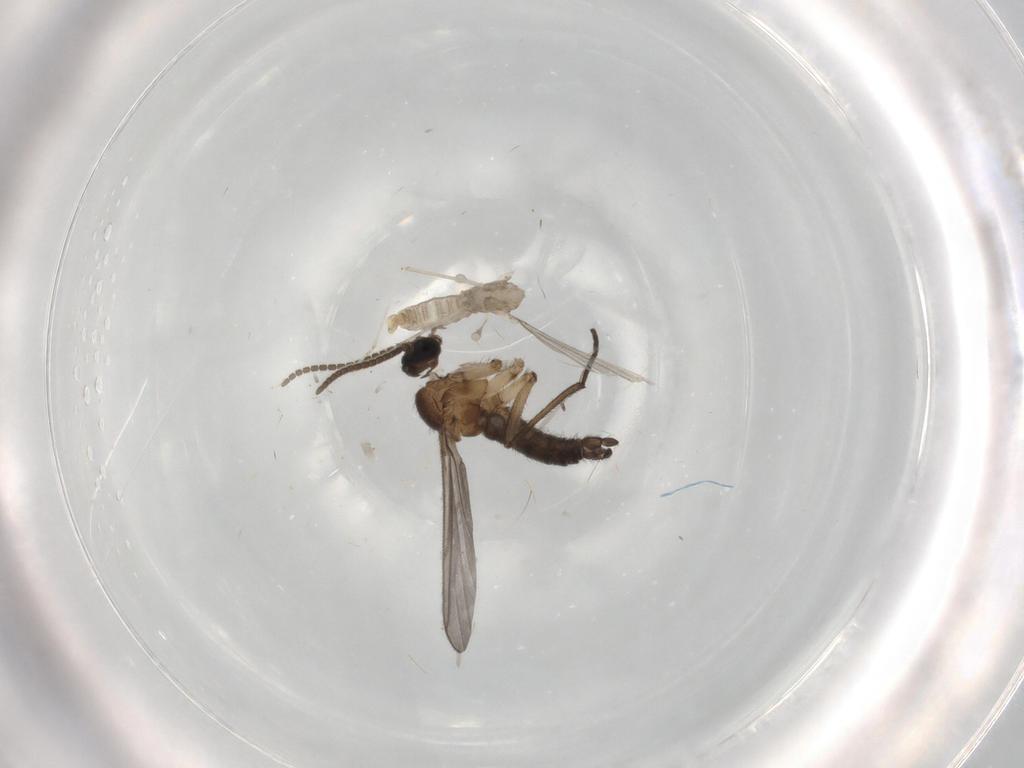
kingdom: Animalia
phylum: Arthropoda
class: Insecta
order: Diptera
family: Cecidomyiidae
